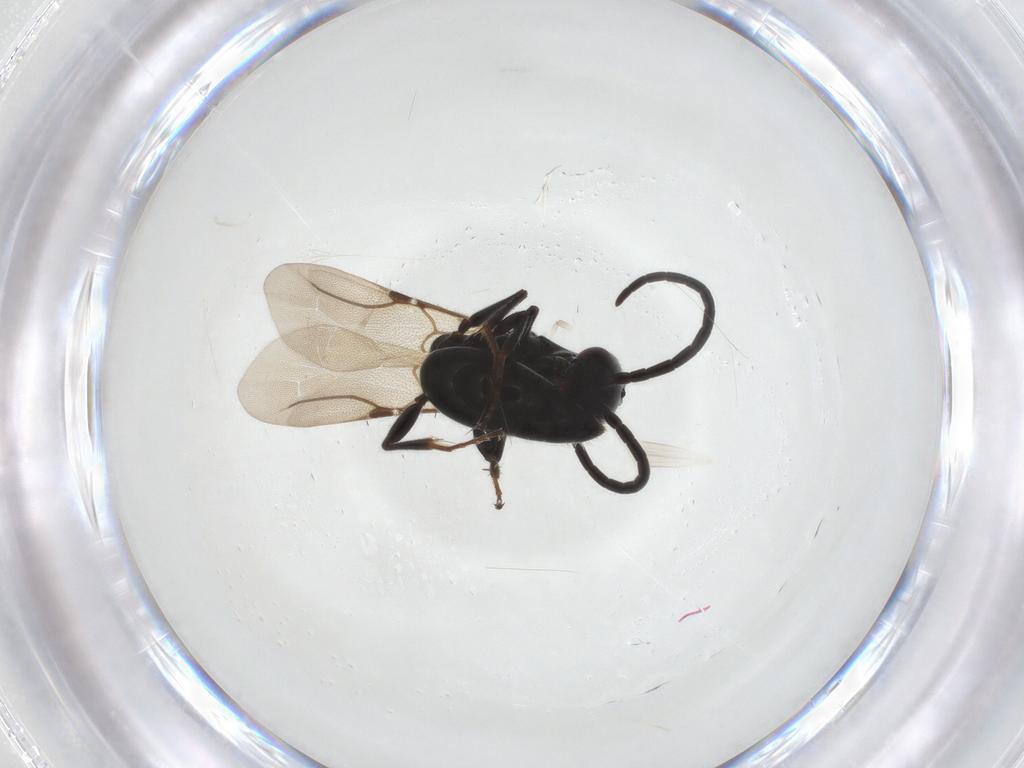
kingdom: Animalia
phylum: Arthropoda
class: Insecta
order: Hymenoptera
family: Bethylidae
